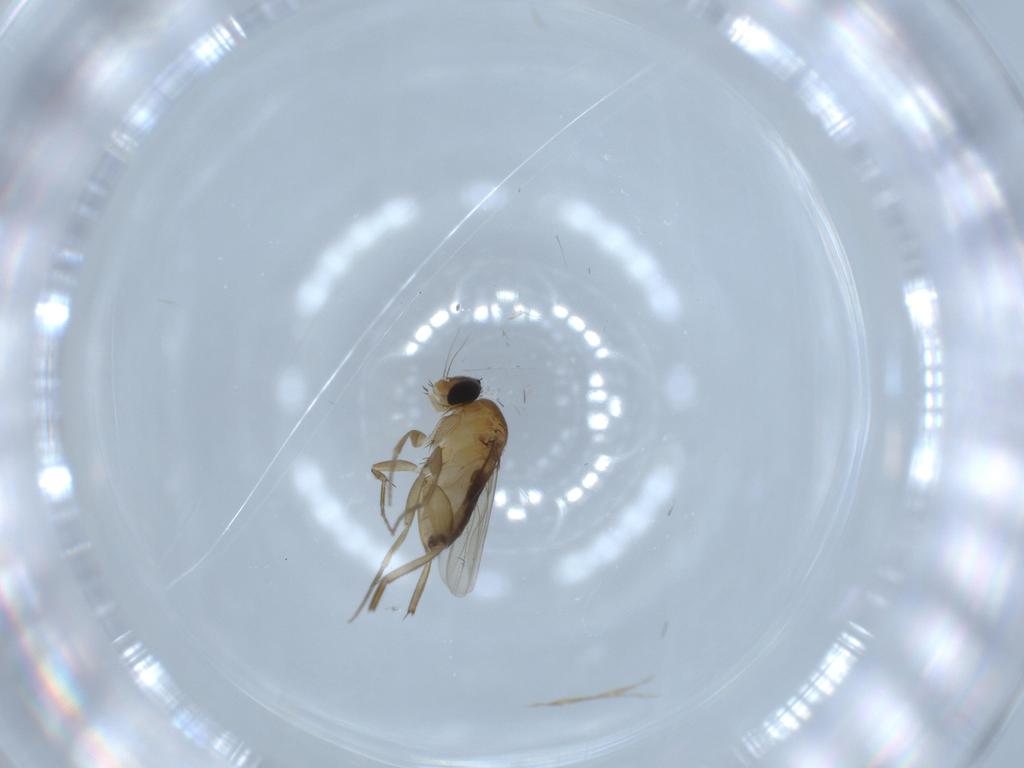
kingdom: Animalia
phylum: Arthropoda
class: Insecta
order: Diptera
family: Phoridae
